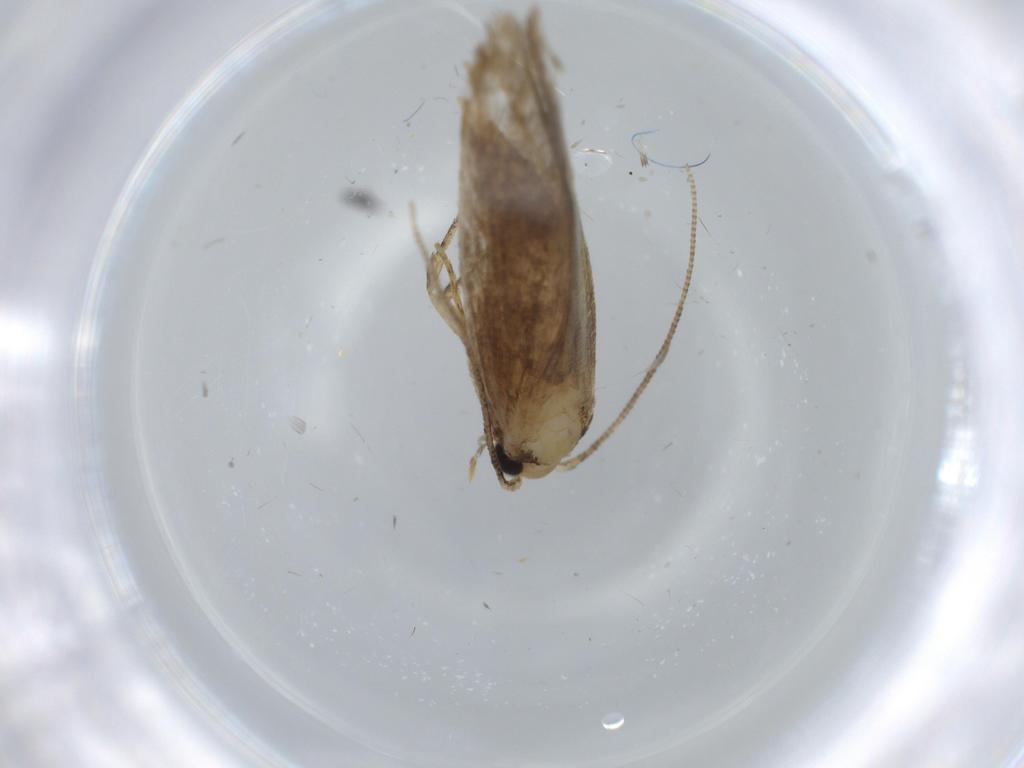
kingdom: Animalia
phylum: Arthropoda
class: Insecta
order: Lepidoptera
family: Tineidae
